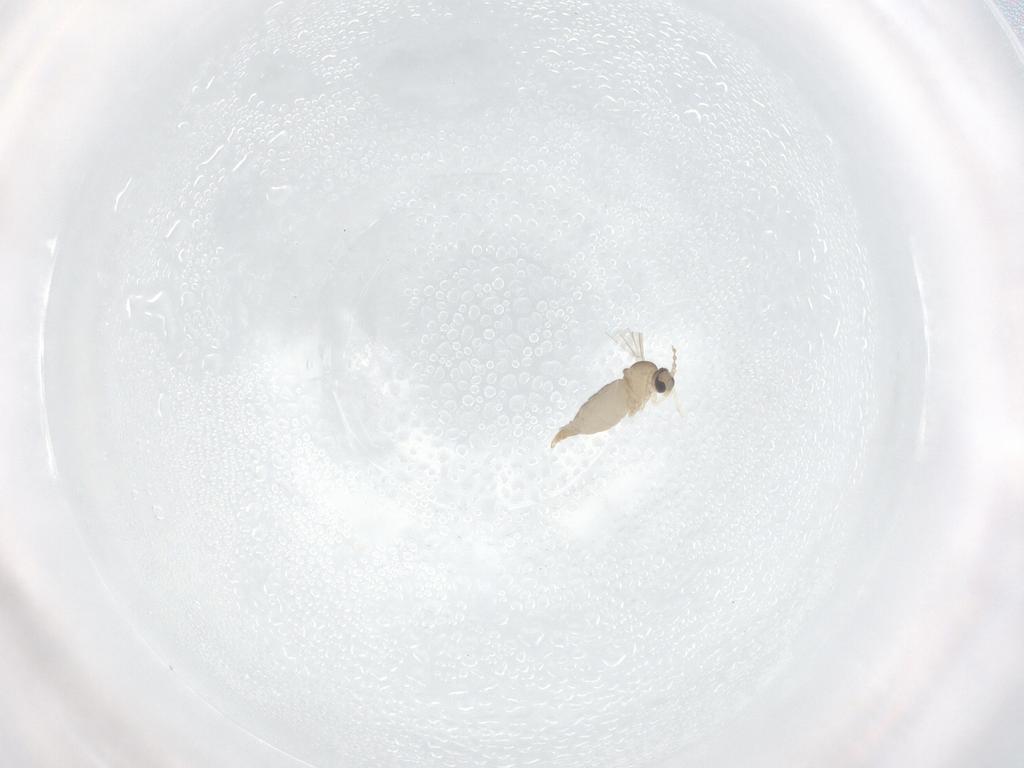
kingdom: Animalia
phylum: Arthropoda
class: Insecta
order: Diptera
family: Cecidomyiidae
